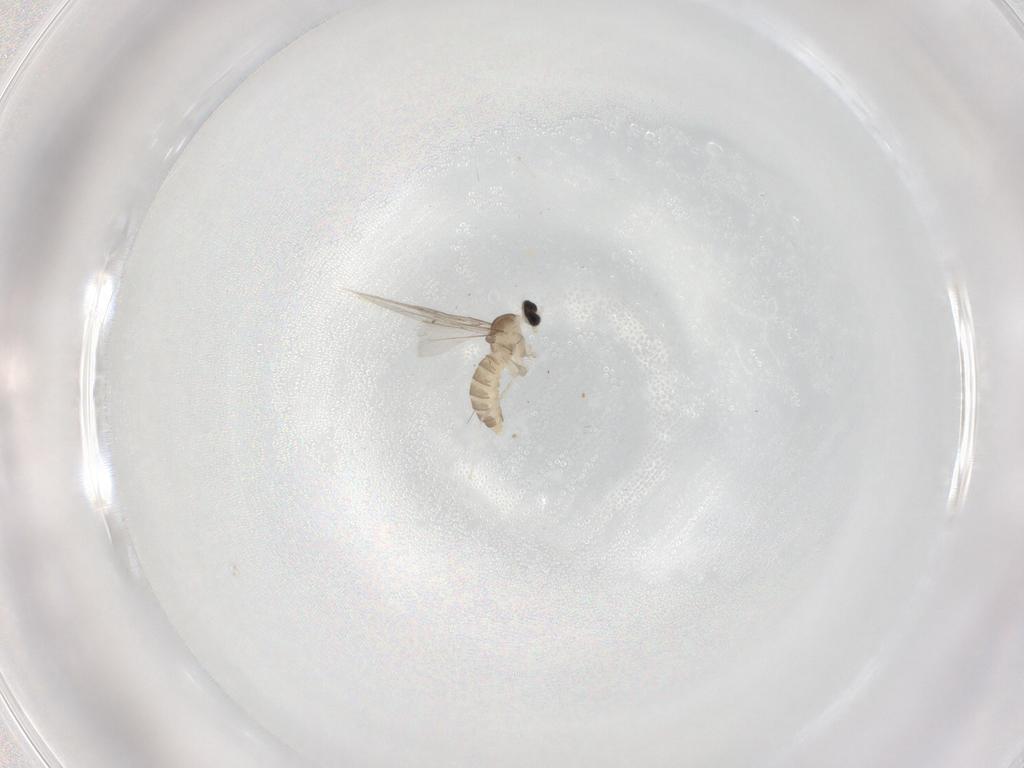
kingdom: Animalia
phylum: Arthropoda
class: Insecta
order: Diptera
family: Cecidomyiidae
